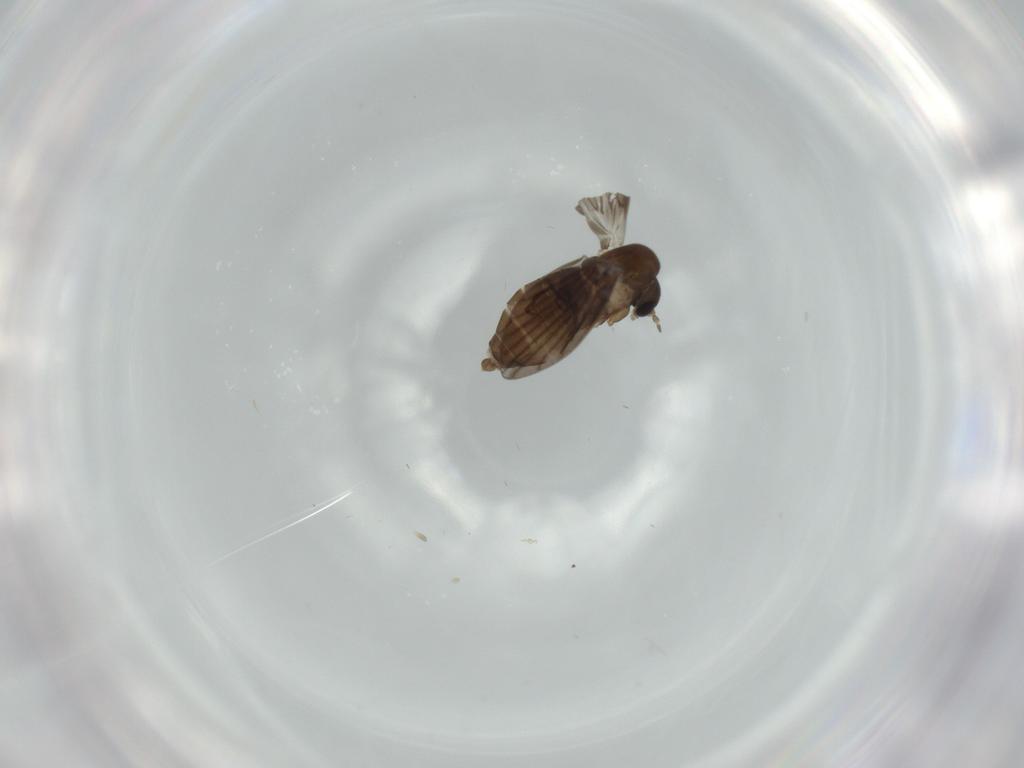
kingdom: Animalia
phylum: Arthropoda
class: Insecta
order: Diptera
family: Psychodidae
